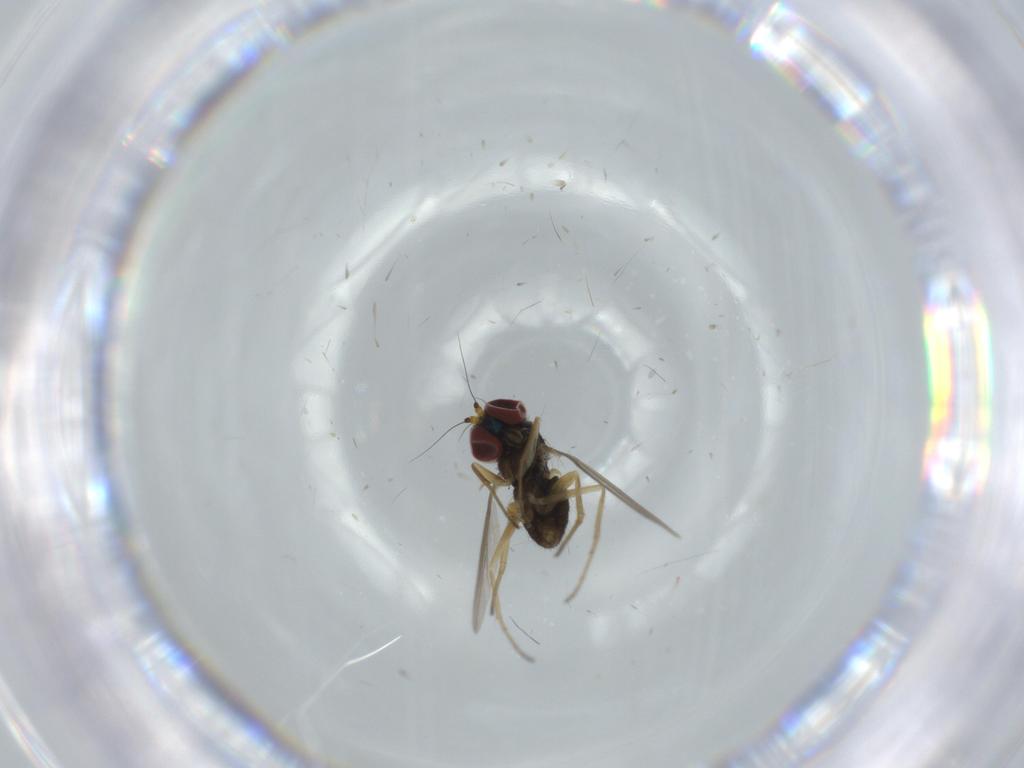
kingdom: Animalia
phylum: Arthropoda
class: Insecta
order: Diptera
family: Dolichopodidae
